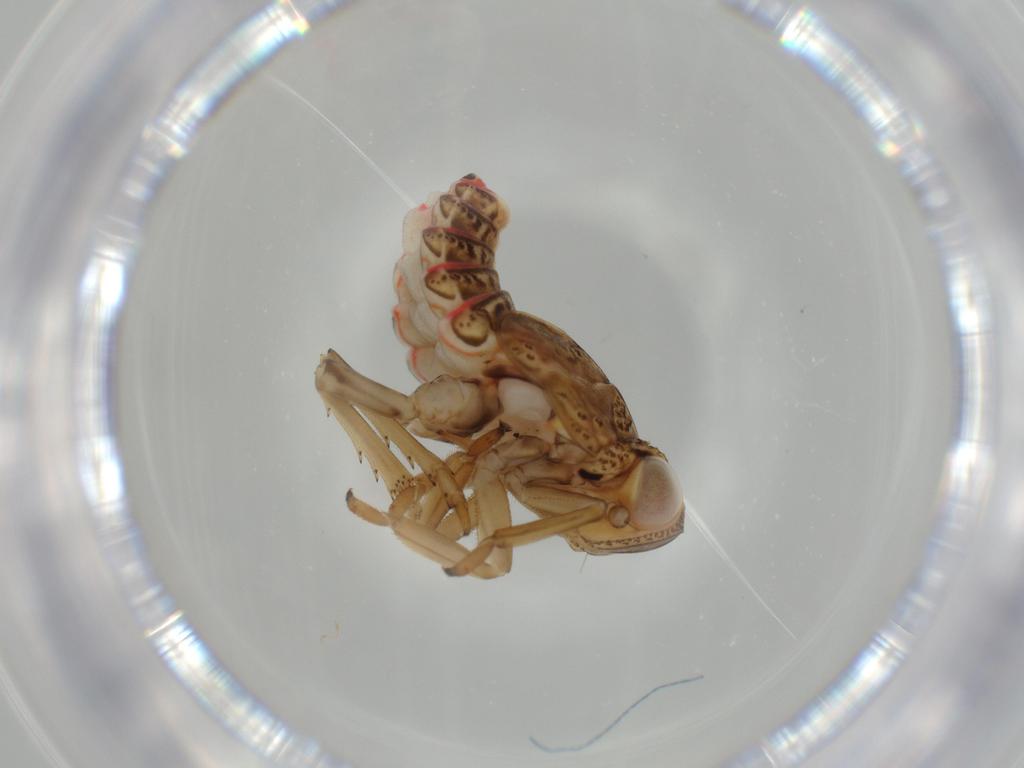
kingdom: Animalia
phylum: Arthropoda
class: Insecta
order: Hemiptera
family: Issidae
